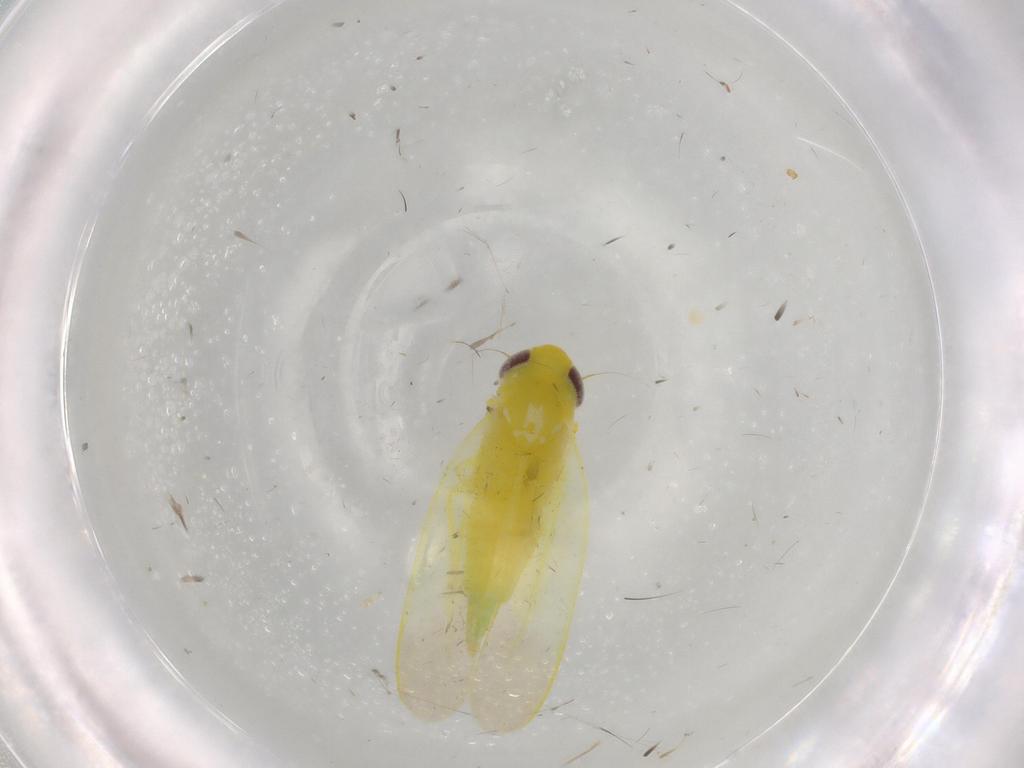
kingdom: Animalia
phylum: Arthropoda
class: Insecta
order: Hemiptera
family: Cicadellidae
